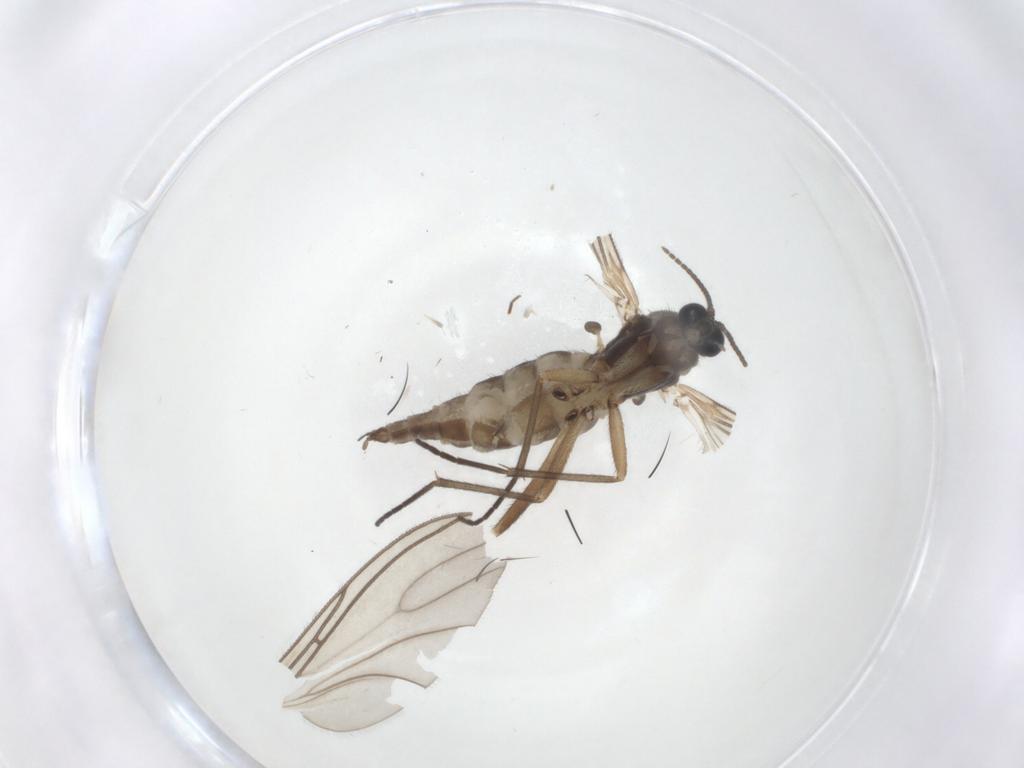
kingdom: Animalia
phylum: Arthropoda
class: Insecta
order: Diptera
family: Sciaridae
